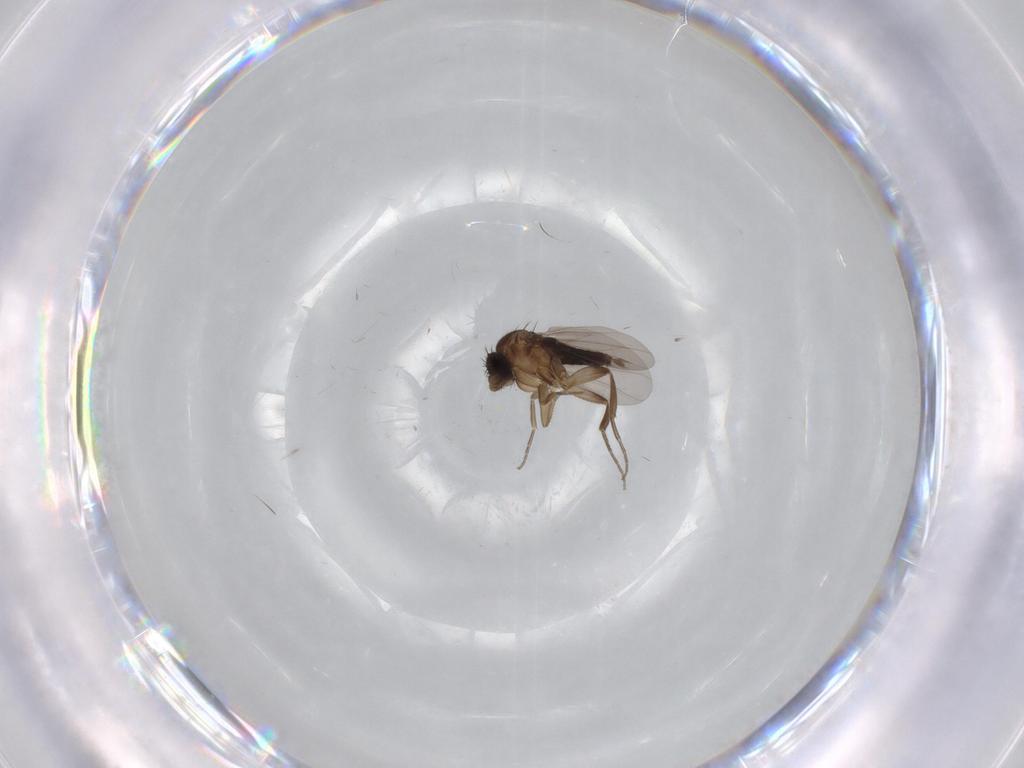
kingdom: Animalia
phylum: Arthropoda
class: Insecta
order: Diptera
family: Phoridae
